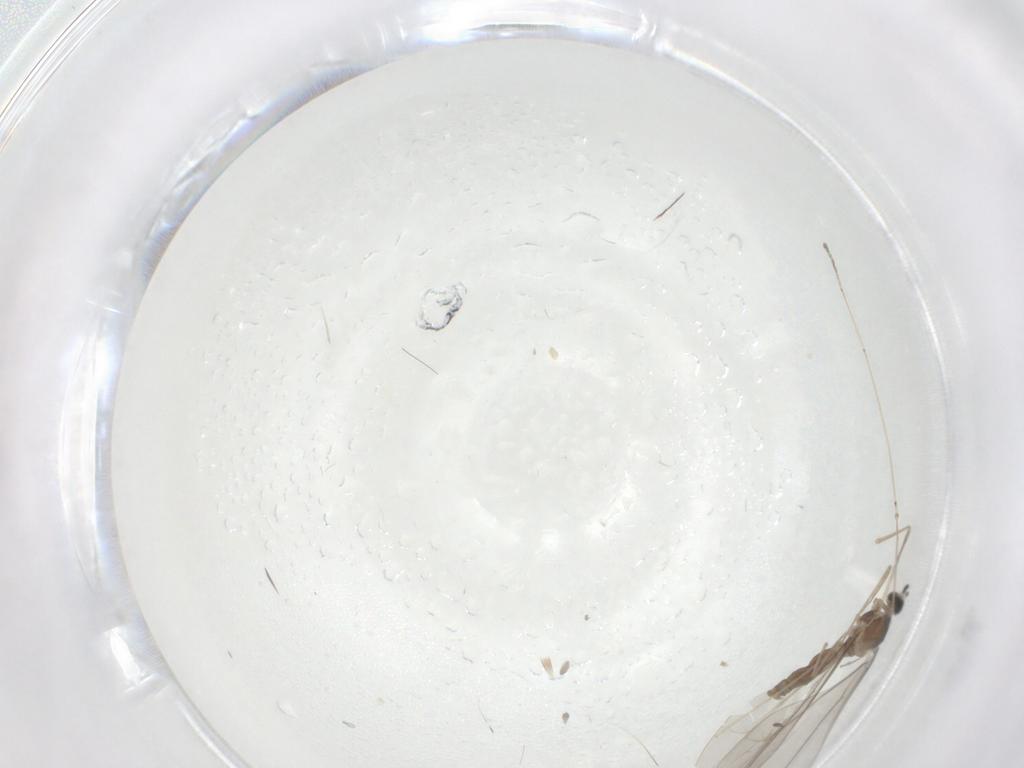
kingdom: Animalia
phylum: Arthropoda
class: Insecta
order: Diptera
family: Cecidomyiidae
